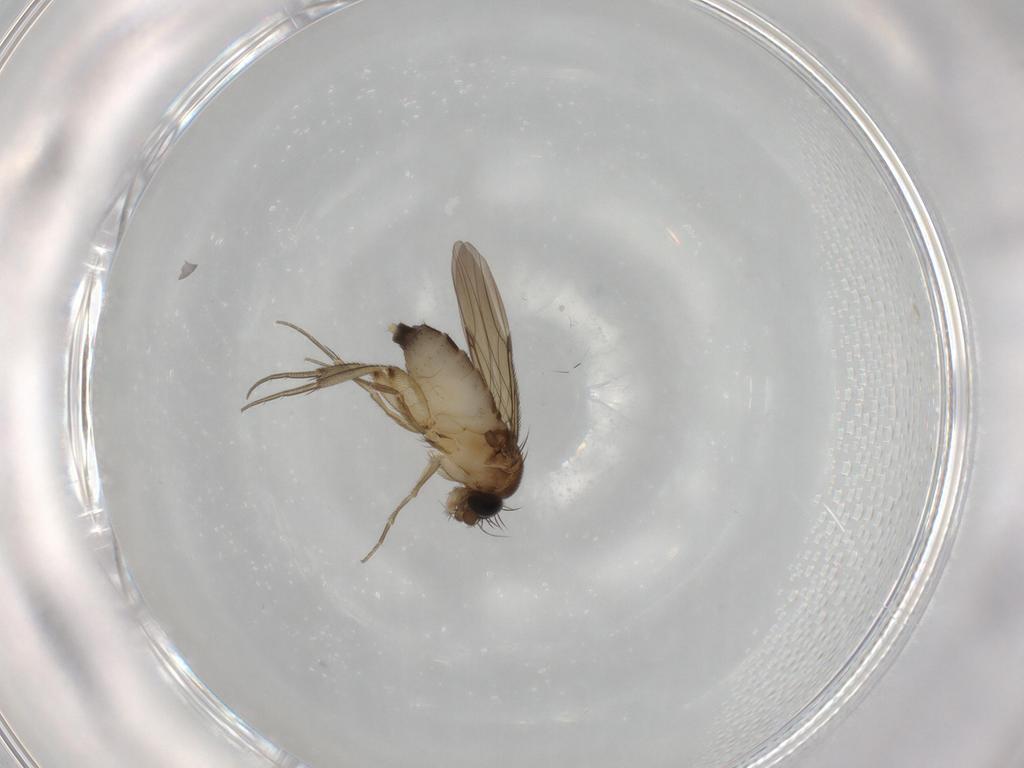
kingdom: Animalia
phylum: Arthropoda
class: Insecta
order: Diptera
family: Phoridae
